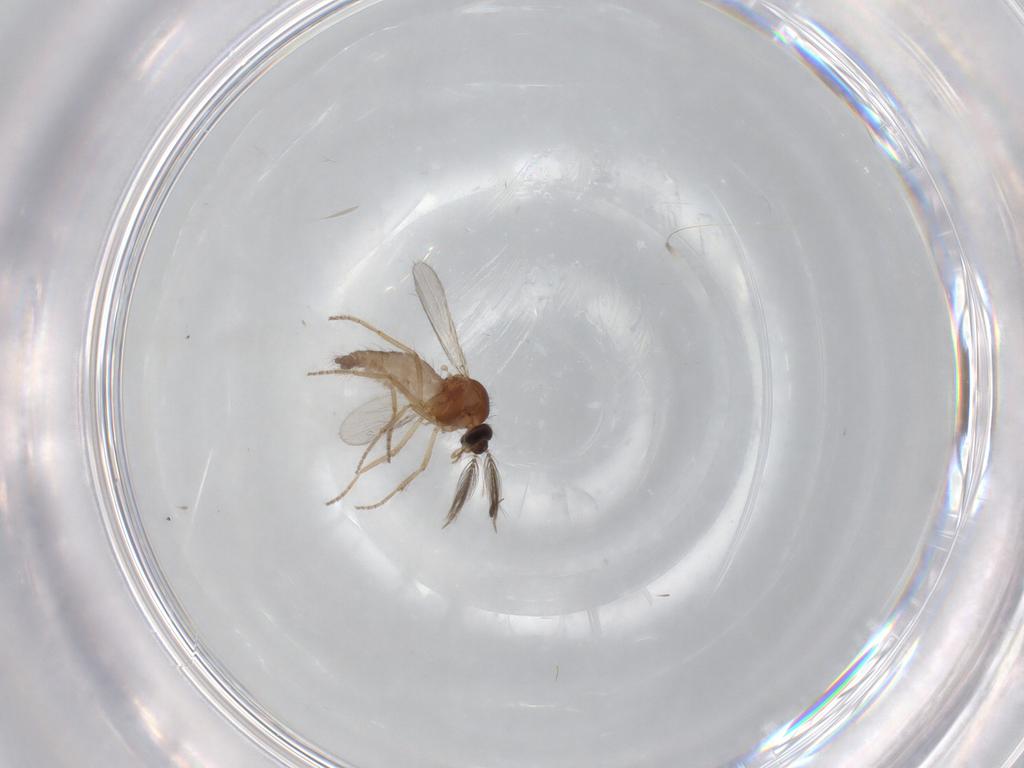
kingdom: Animalia
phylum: Arthropoda
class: Insecta
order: Diptera
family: Ceratopogonidae
